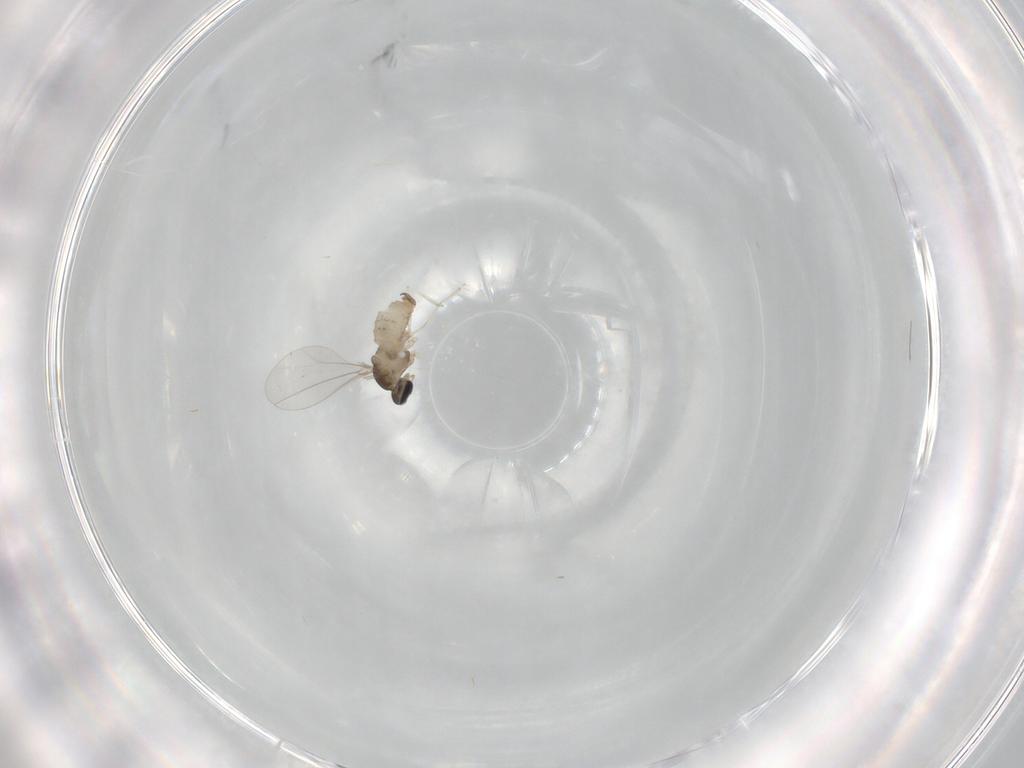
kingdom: Animalia
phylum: Arthropoda
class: Insecta
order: Diptera
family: Cecidomyiidae
